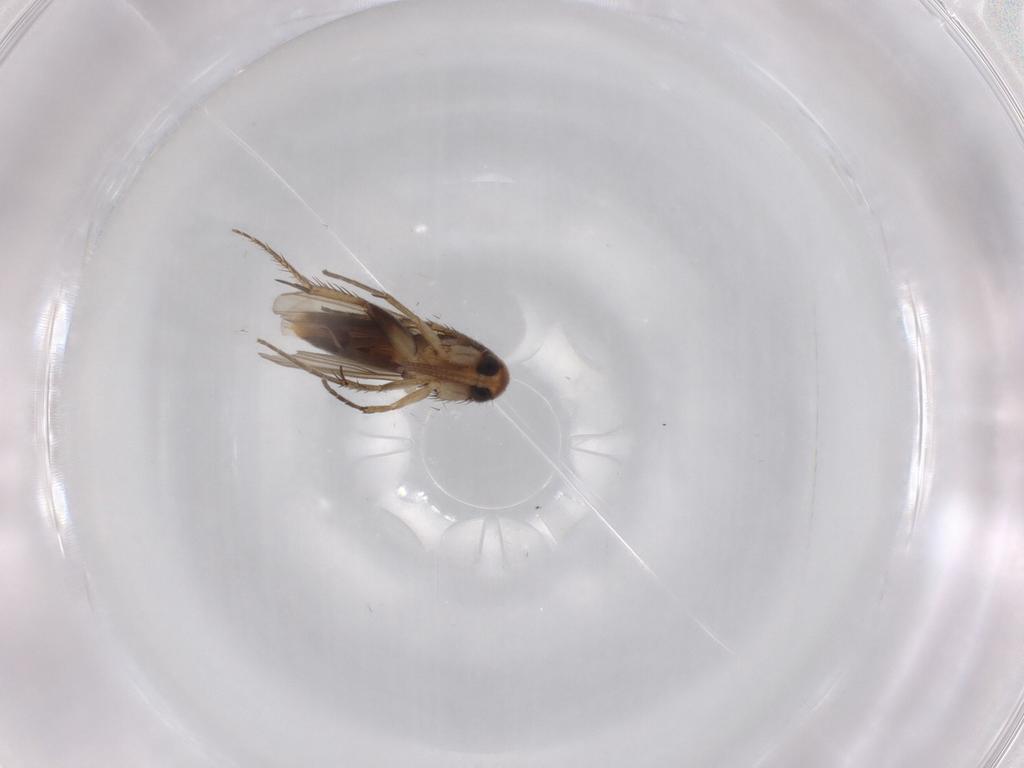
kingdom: Animalia
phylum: Arthropoda
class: Insecta
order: Diptera
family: Mycetophilidae
